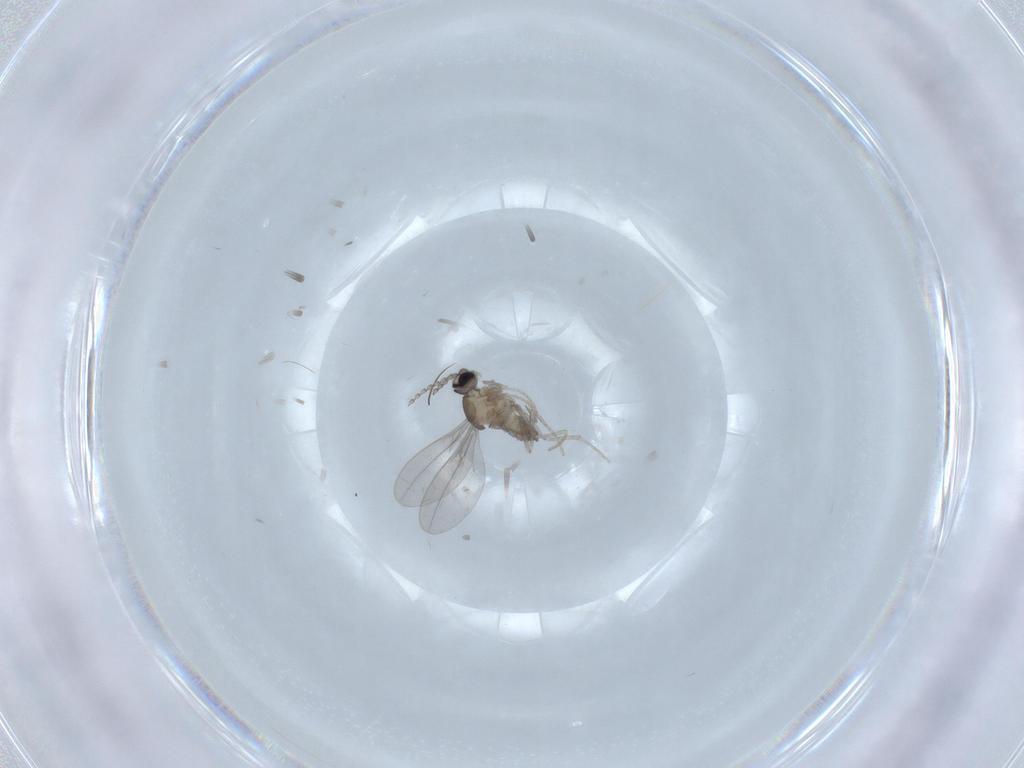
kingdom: Animalia
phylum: Arthropoda
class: Insecta
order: Diptera
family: Cecidomyiidae
